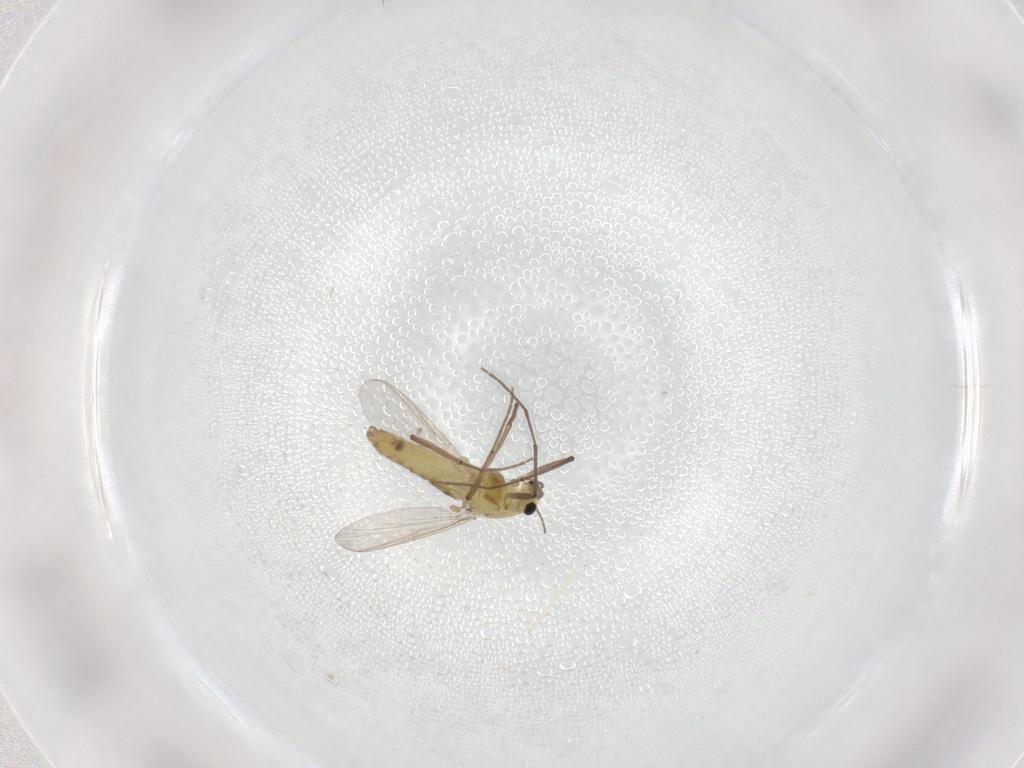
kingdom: Animalia
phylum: Arthropoda
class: Insecta
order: Diptera
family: Chironomidae
